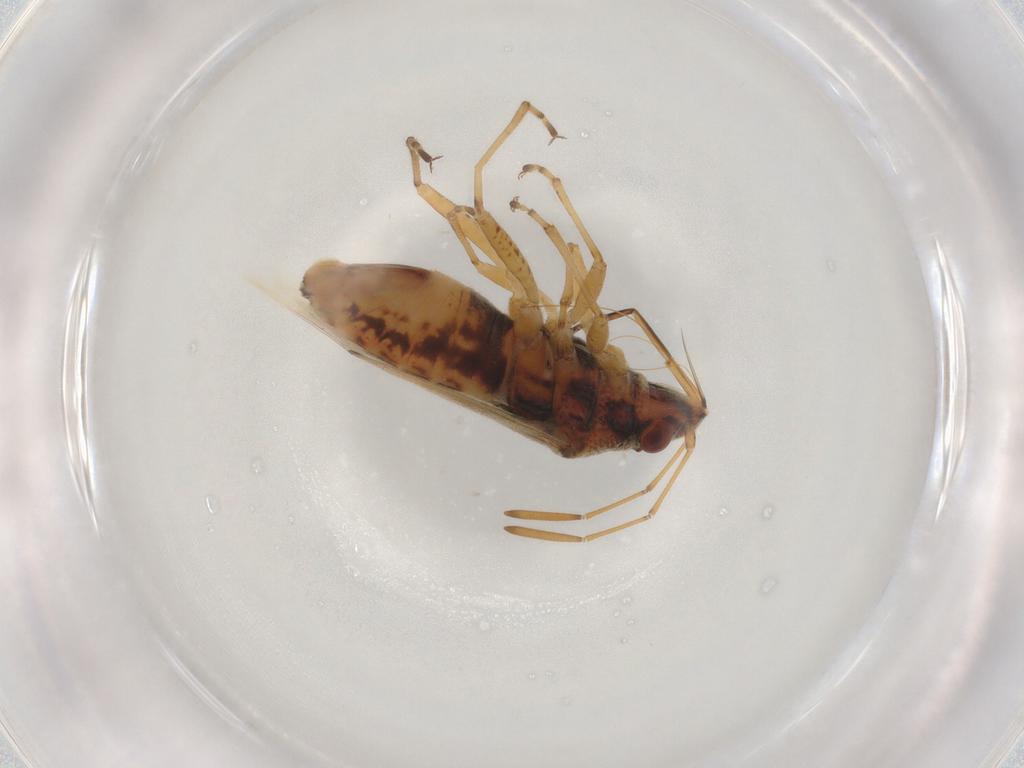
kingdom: Animalia
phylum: Arthropoda
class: Insecta
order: Hemiptera
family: Lygaeidae
